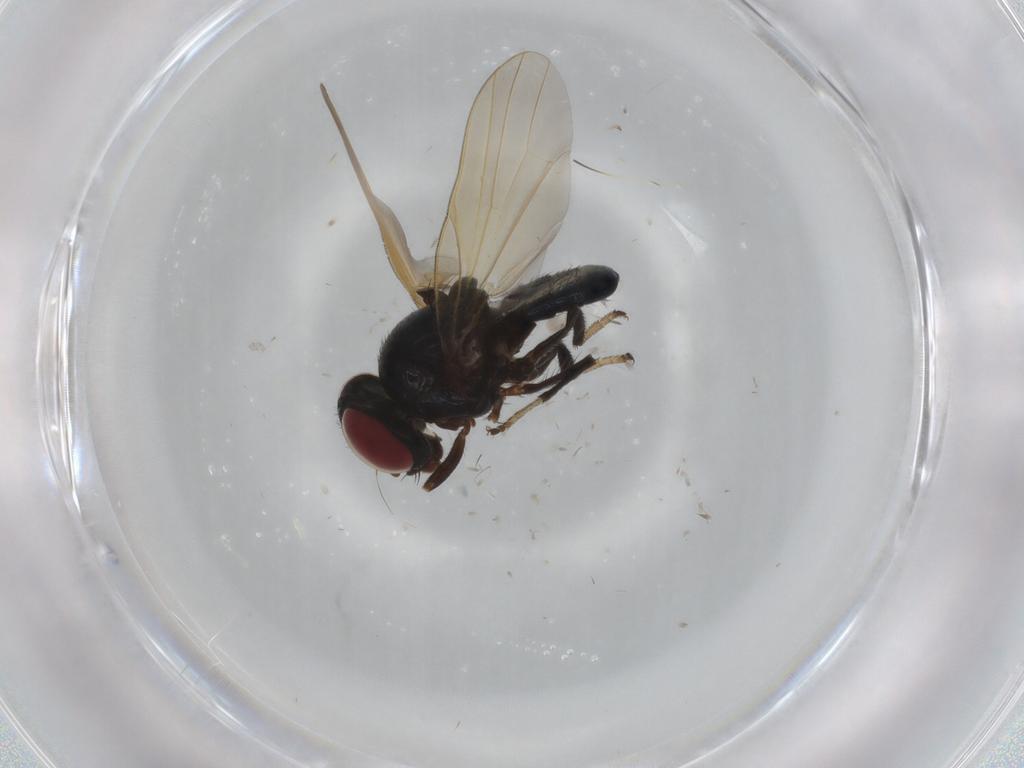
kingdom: Animalia
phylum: Arthropoda
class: Insecta
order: Diptera
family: Lonchaeidae
